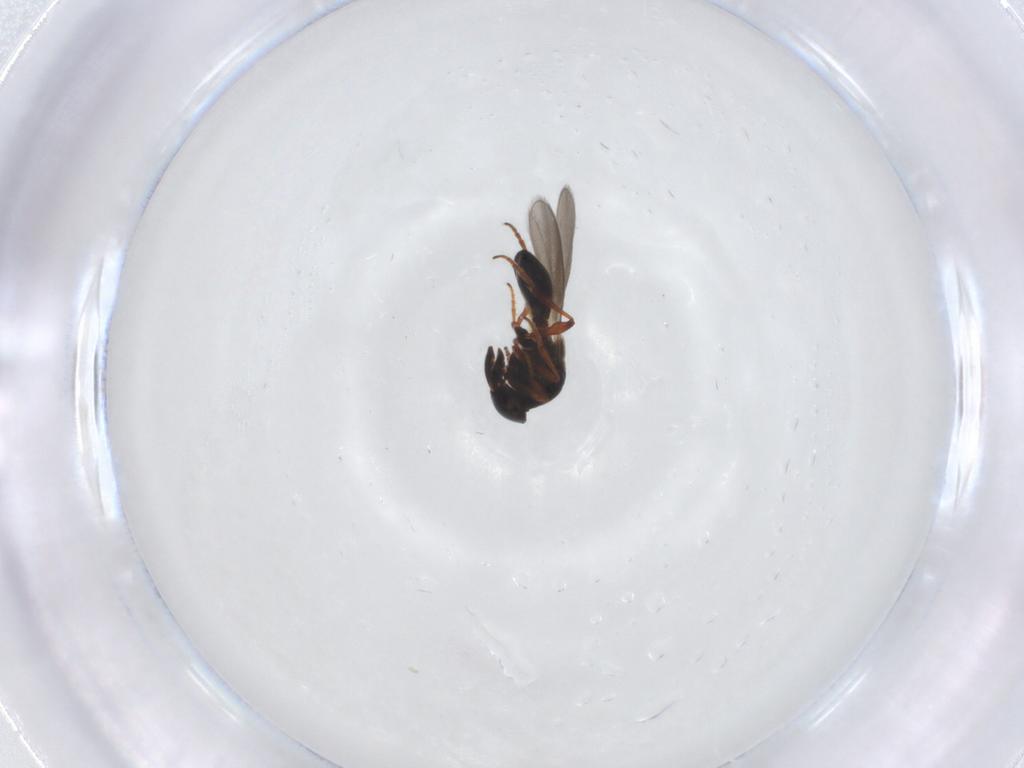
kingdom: Animalia
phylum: Arthropoda
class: Insecta
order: Hymenoptera
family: Platygastridae
